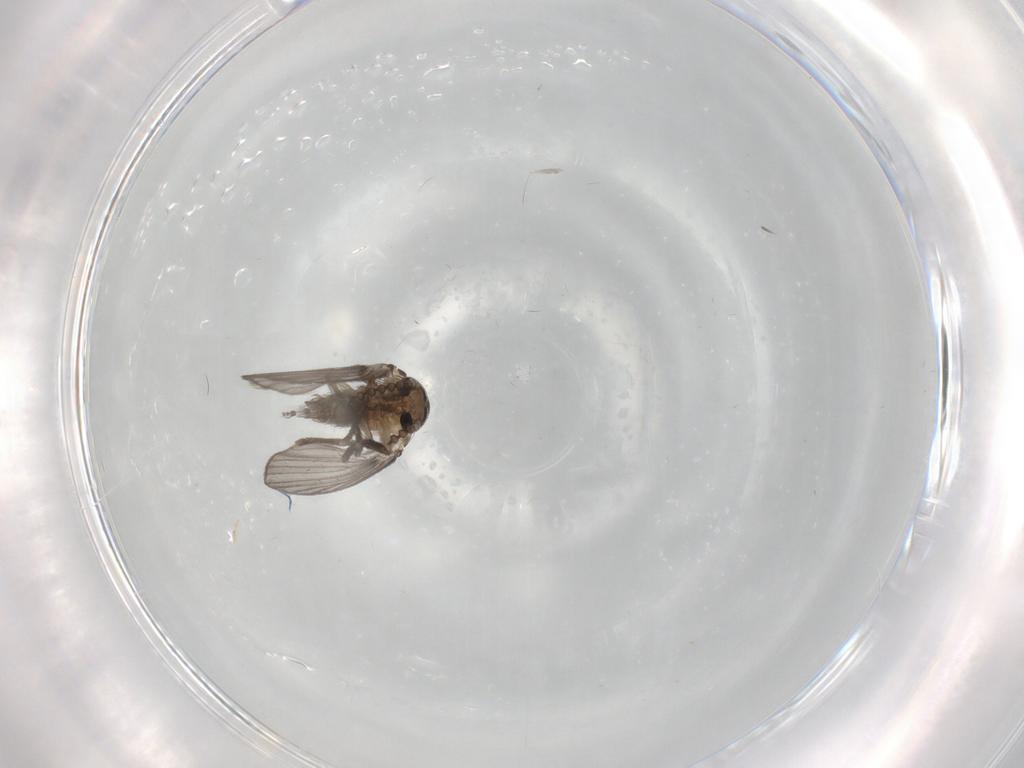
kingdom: Animalia
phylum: Arthropoda
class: Insecta
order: Diptera
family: Psychodidae
